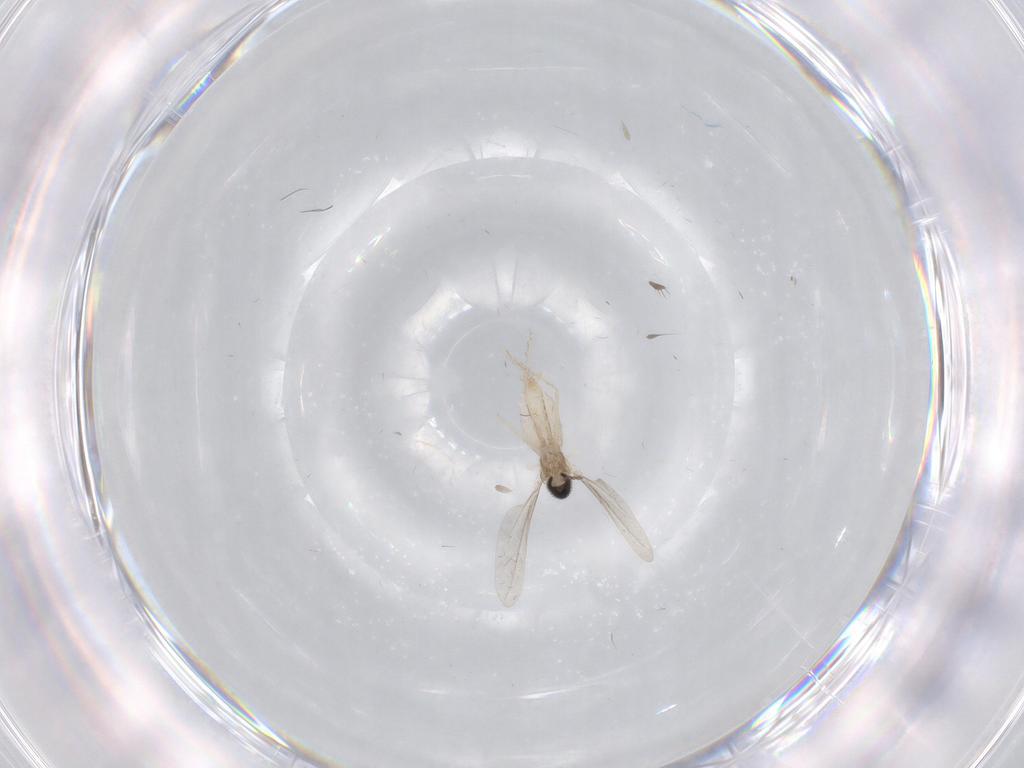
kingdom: Animalia
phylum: Arthropoda
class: Insecta
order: Diptera
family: Cecidomyiidae
